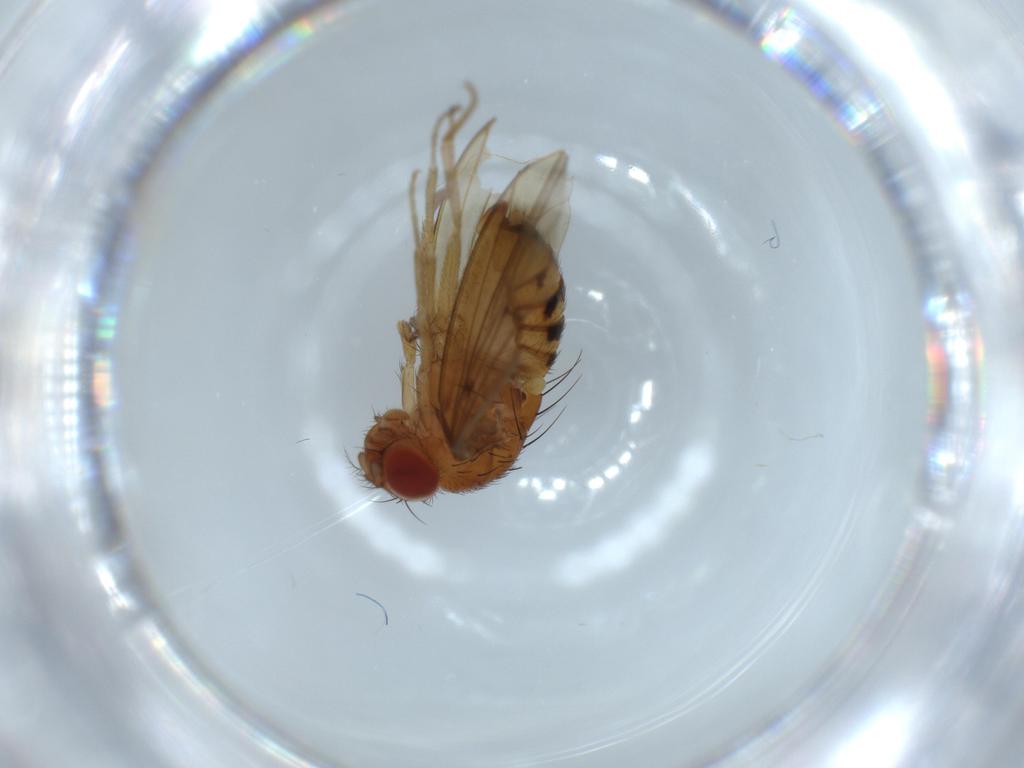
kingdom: Animalia
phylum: Arthropoda
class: Insecta
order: Diptera
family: Drosophilidae
